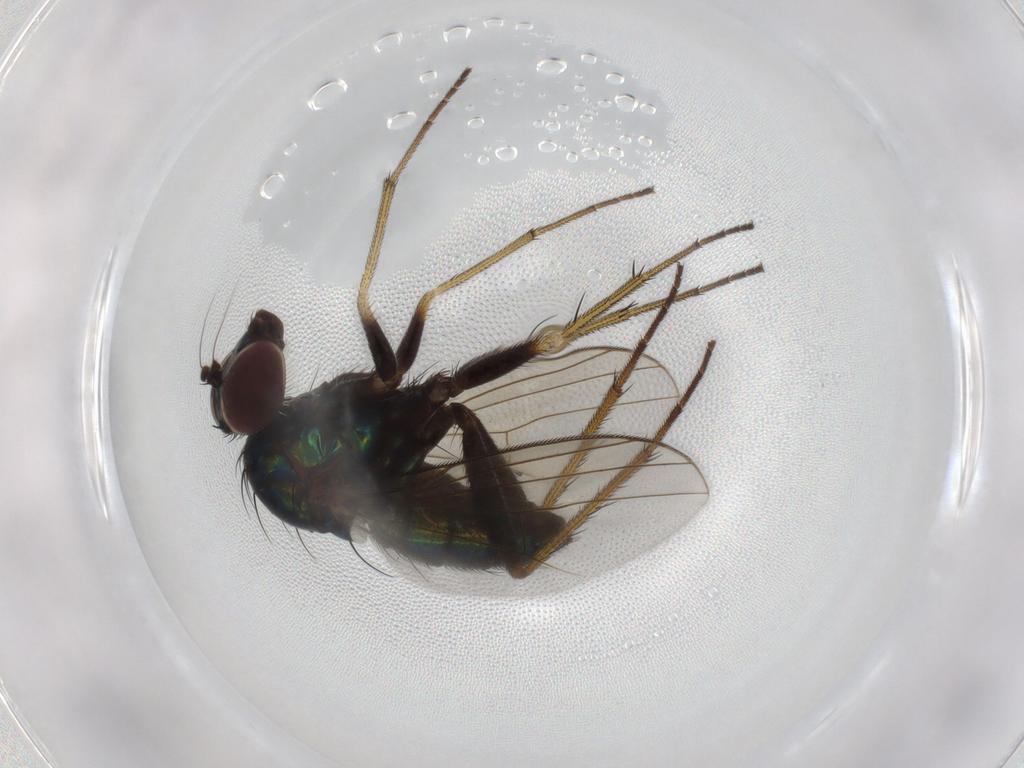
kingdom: Animalia
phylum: Arthropoda
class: Insecta
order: Diptera
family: Dolichopodidae
